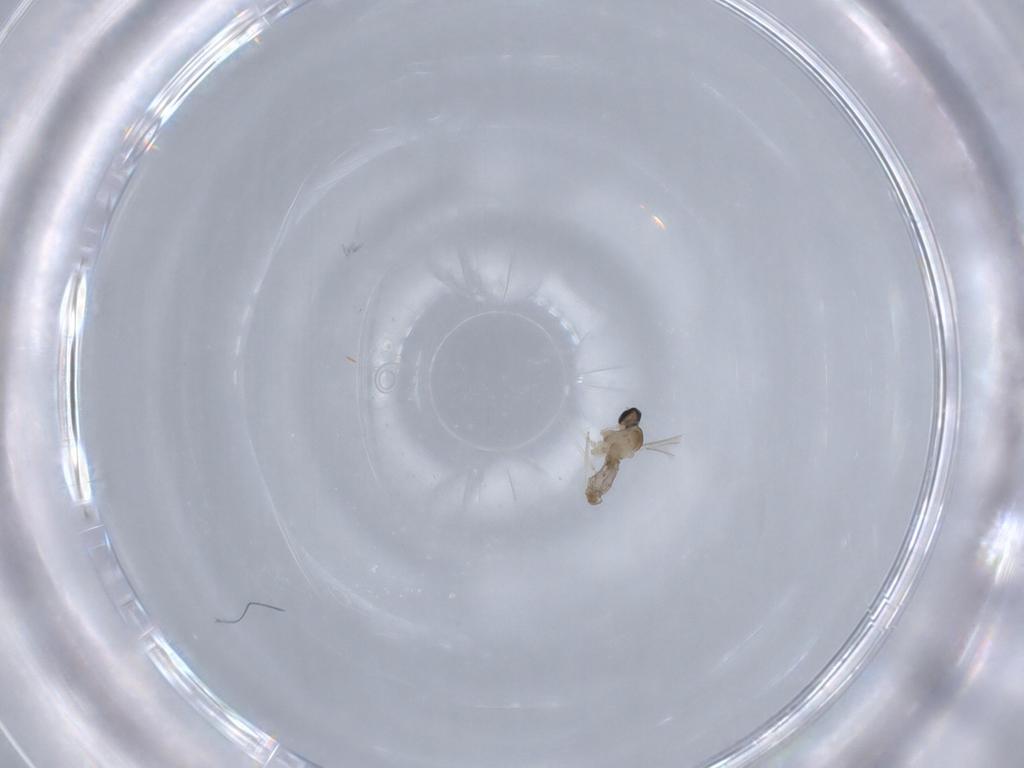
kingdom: Animalia
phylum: Arthropoda
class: Insecta
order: Diptera
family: Cecidomyiidae
